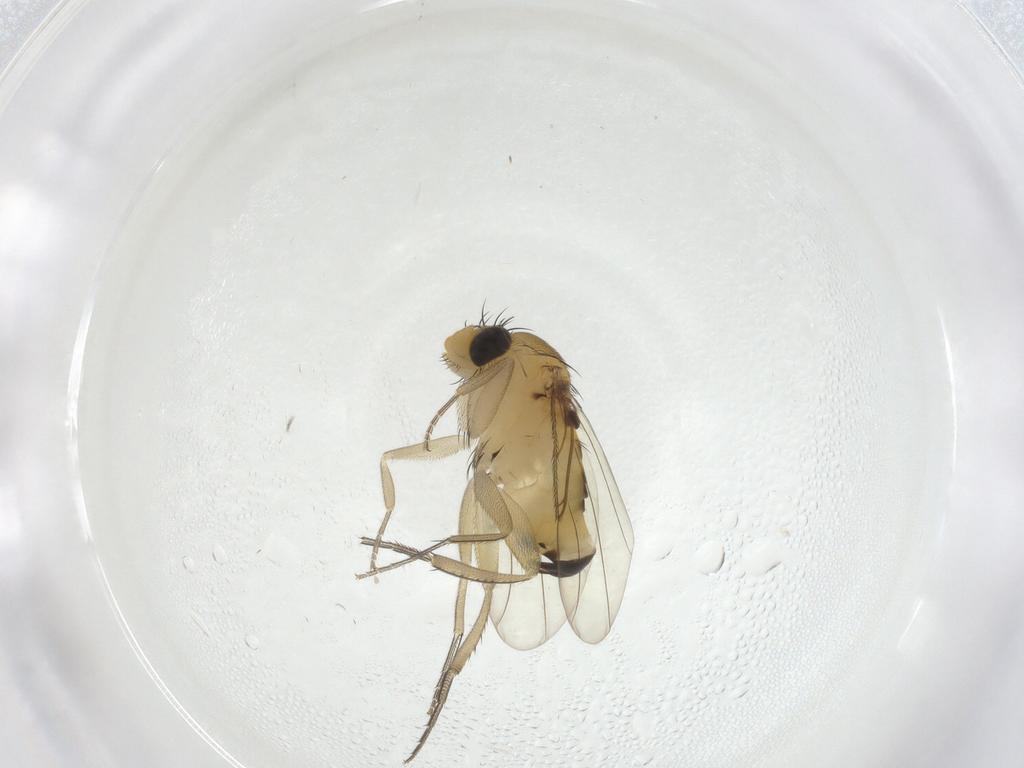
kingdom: Animalia
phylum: Arthropoda
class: Insecta
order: Diptera
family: Phoridae
